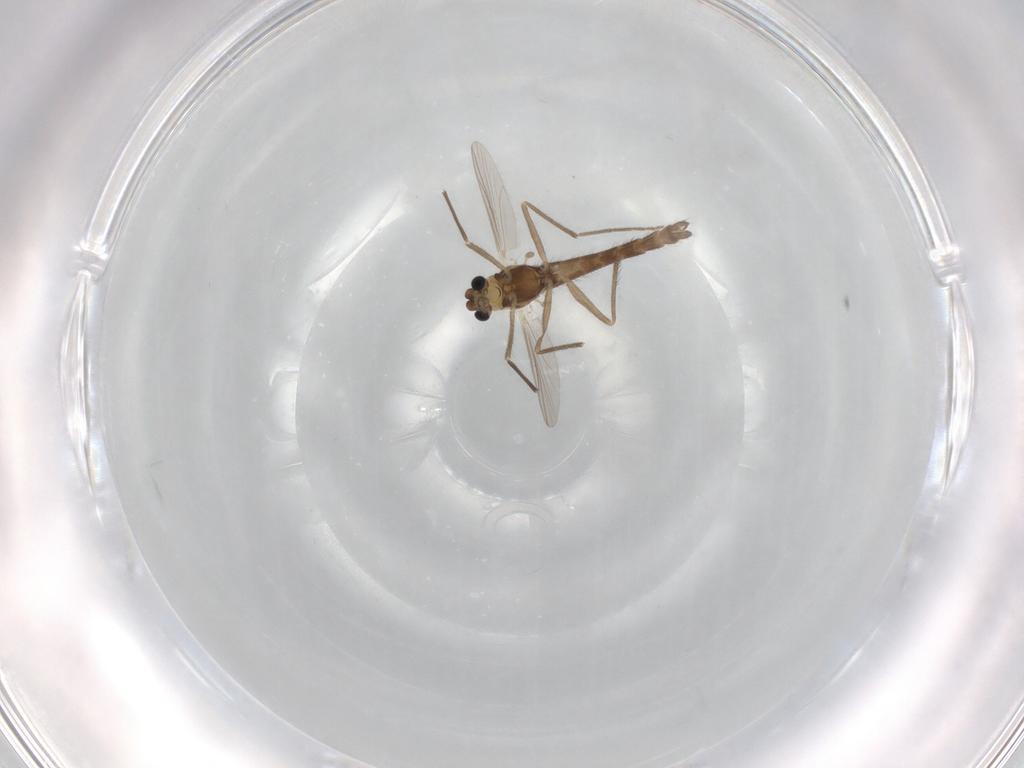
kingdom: Animalia
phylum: Arthropoda
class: Insecta
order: Diptera
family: Chironomidae
